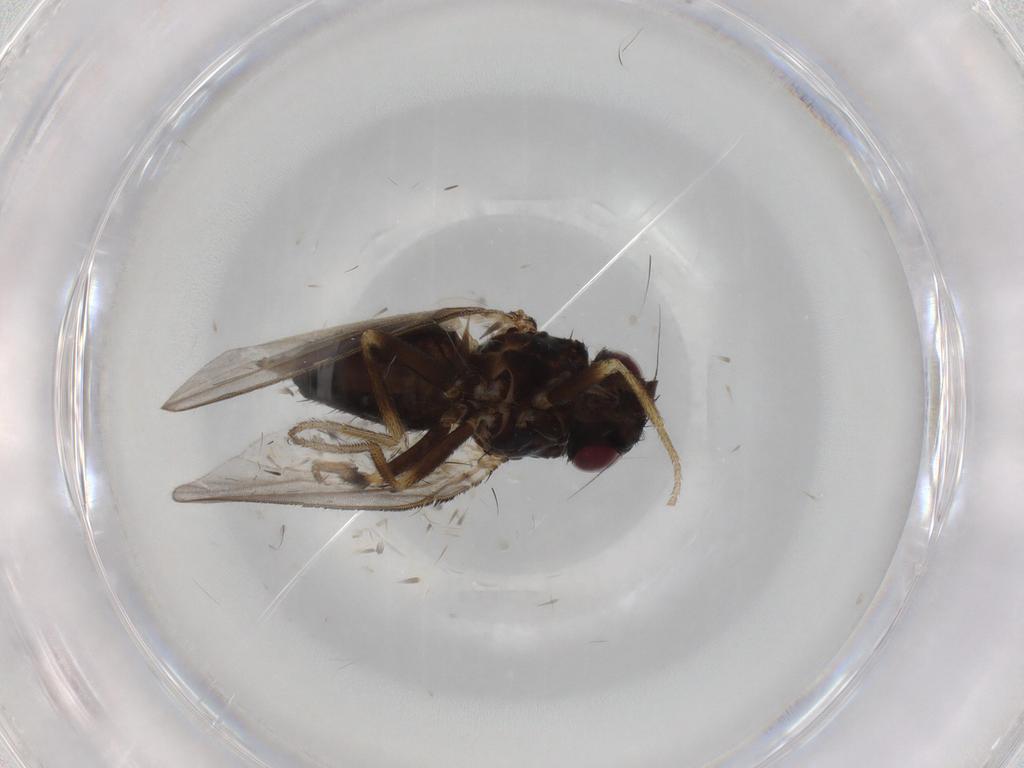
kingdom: Animalia
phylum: Arthropoda
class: Insecta
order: Diptera
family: Milichiidae
